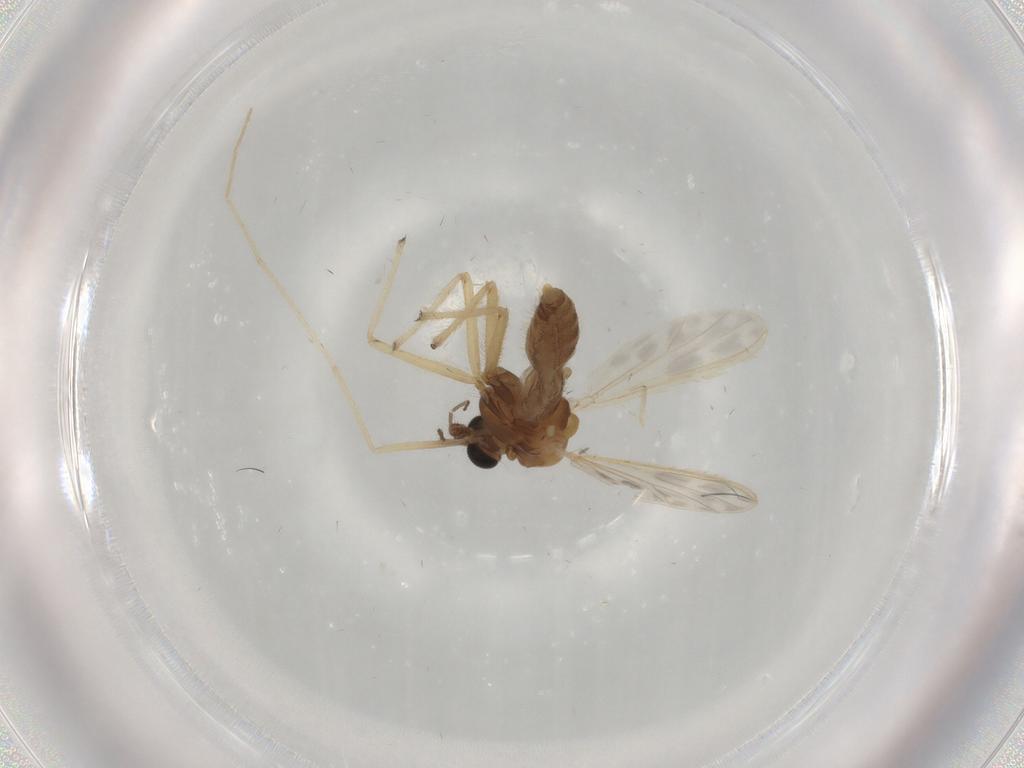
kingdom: Animalia
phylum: Arthropoda
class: Insecta
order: Diptera
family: Chironomidae
